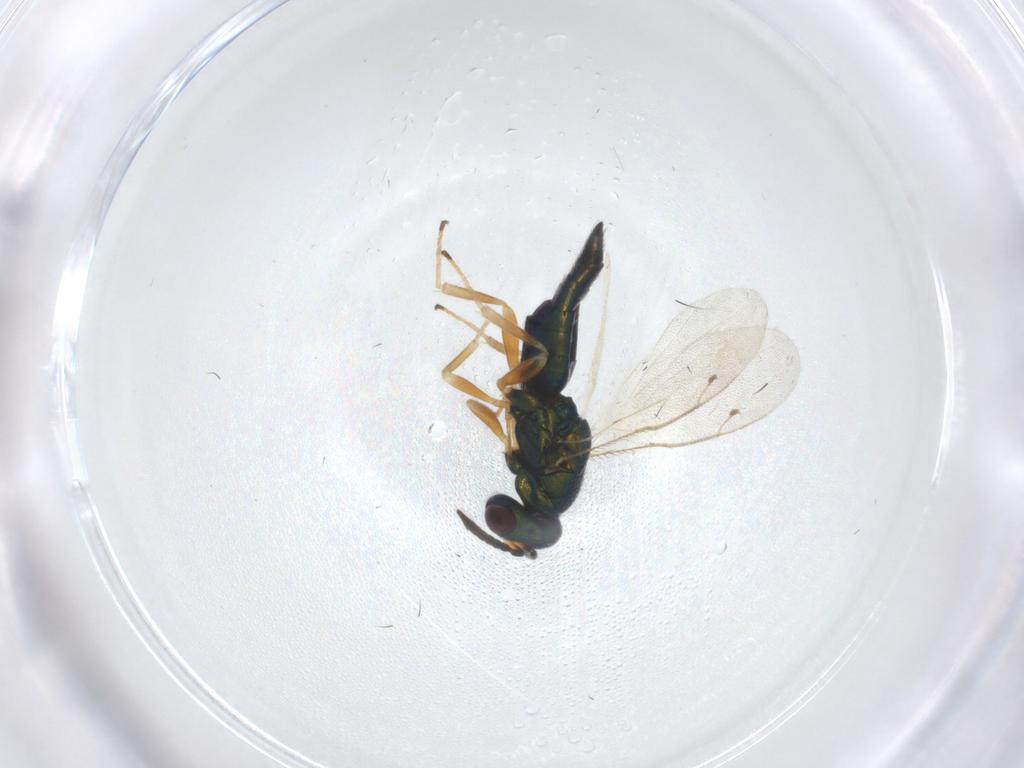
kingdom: Animalia
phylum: Arthropoda
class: Insecta
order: Hymenoptera
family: Pteromalidae
